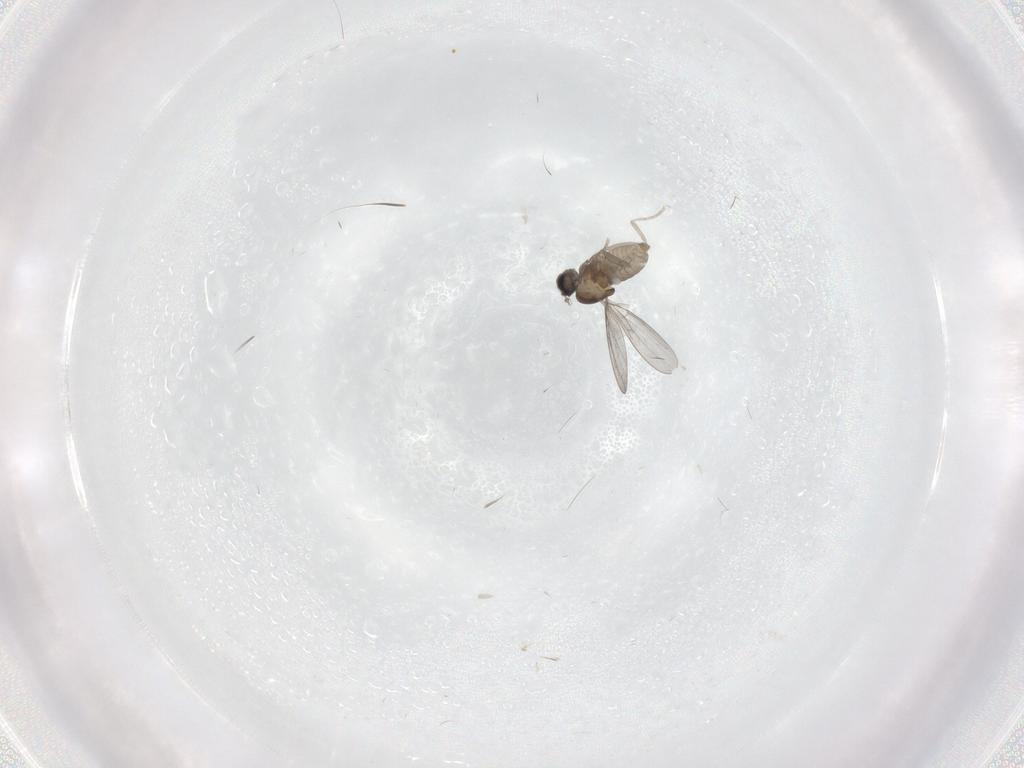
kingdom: Animalia
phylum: Arthropoda
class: Insecta
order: Diptera
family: Cecidomyiidae
